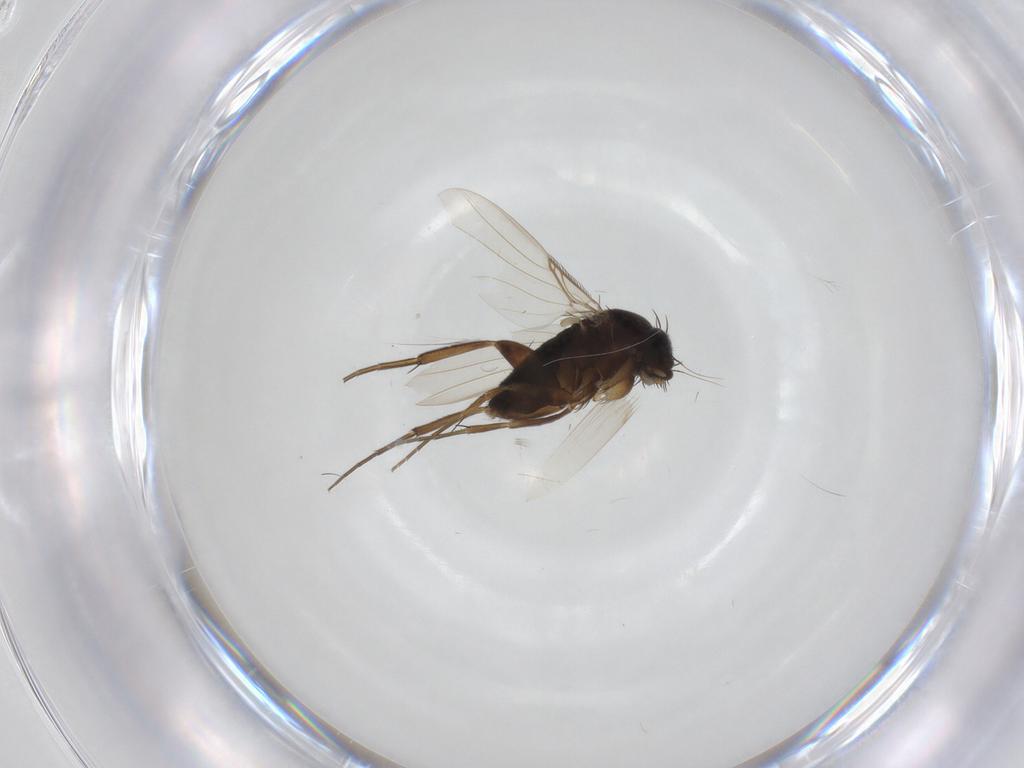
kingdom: Animalia
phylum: Arthropoda
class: Insecta
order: Diptera
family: Phoridae
